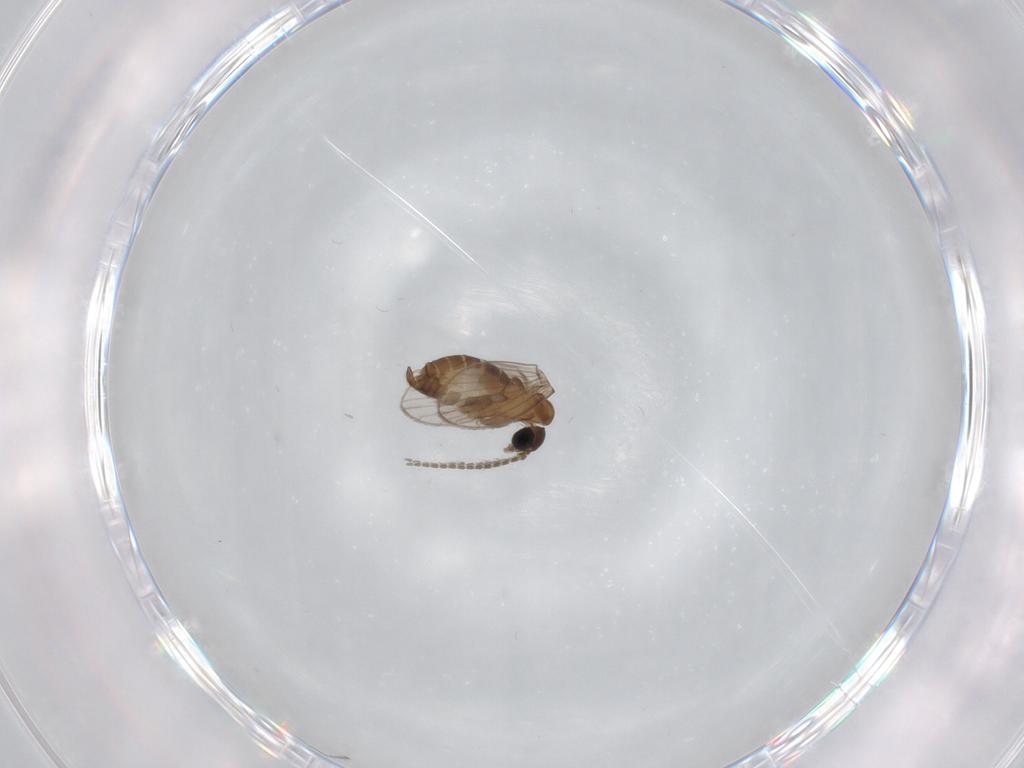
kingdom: Animalia
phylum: Arthropoda
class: Insecta
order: Diptera
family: Psychodidae
